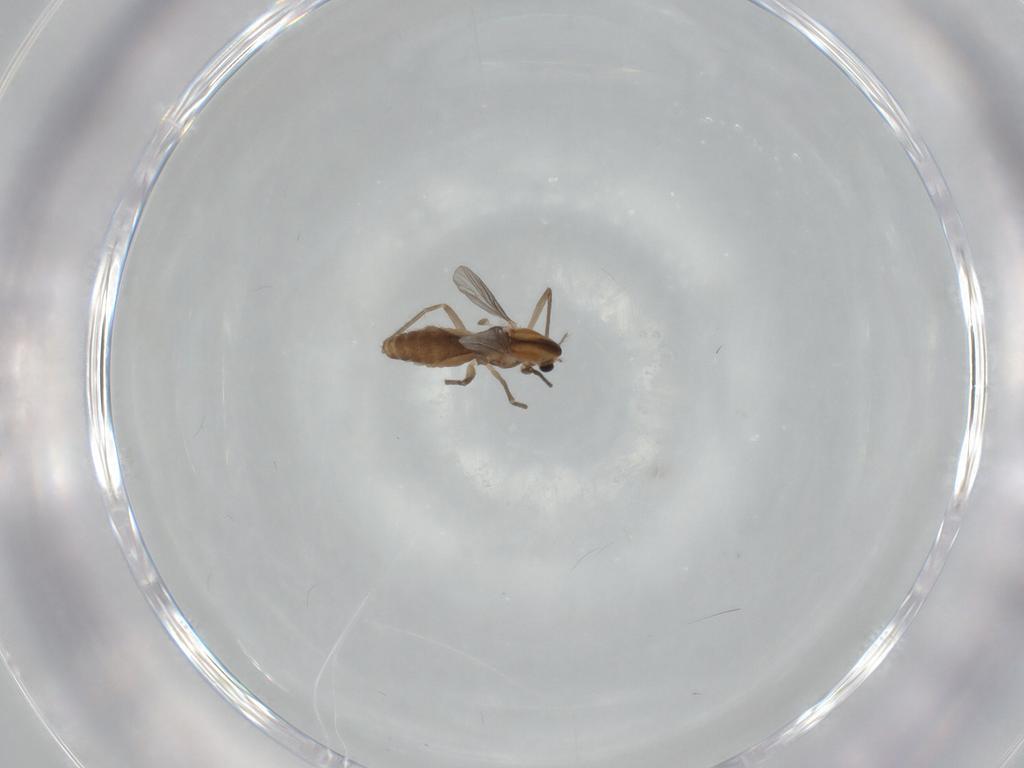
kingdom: Animalia
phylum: Arthropoda
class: Insecta
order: Diptera
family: Chironomidae
